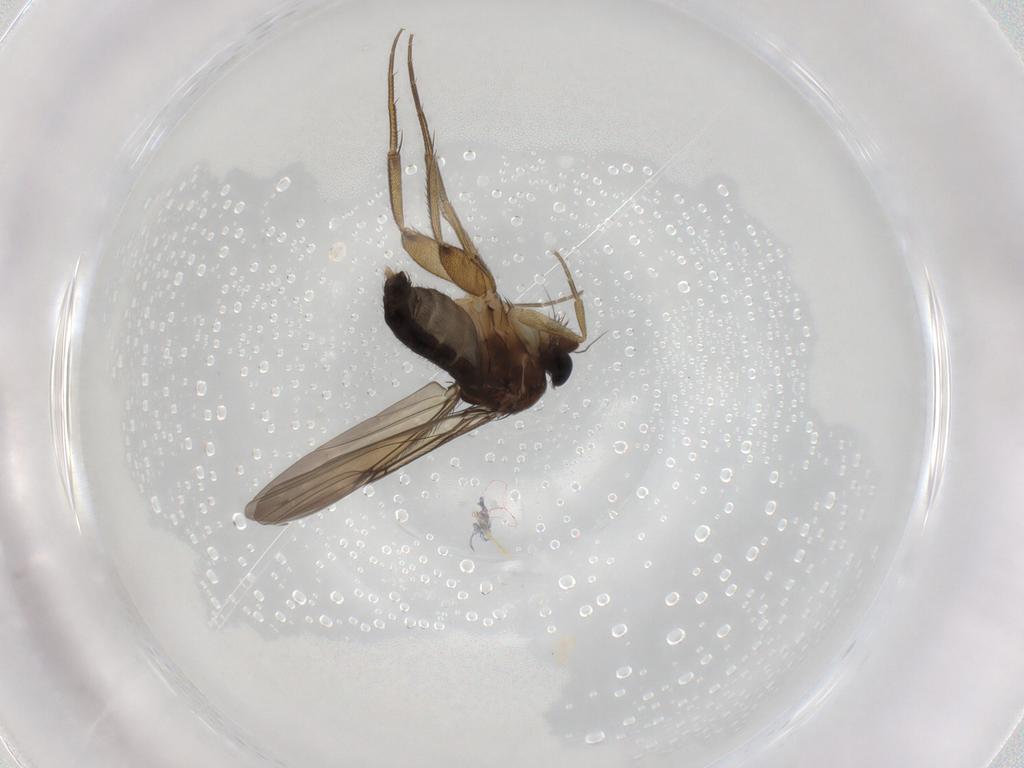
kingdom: Animalia
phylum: Arthropoda
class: Insecta
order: Diptera
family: Phoridae
